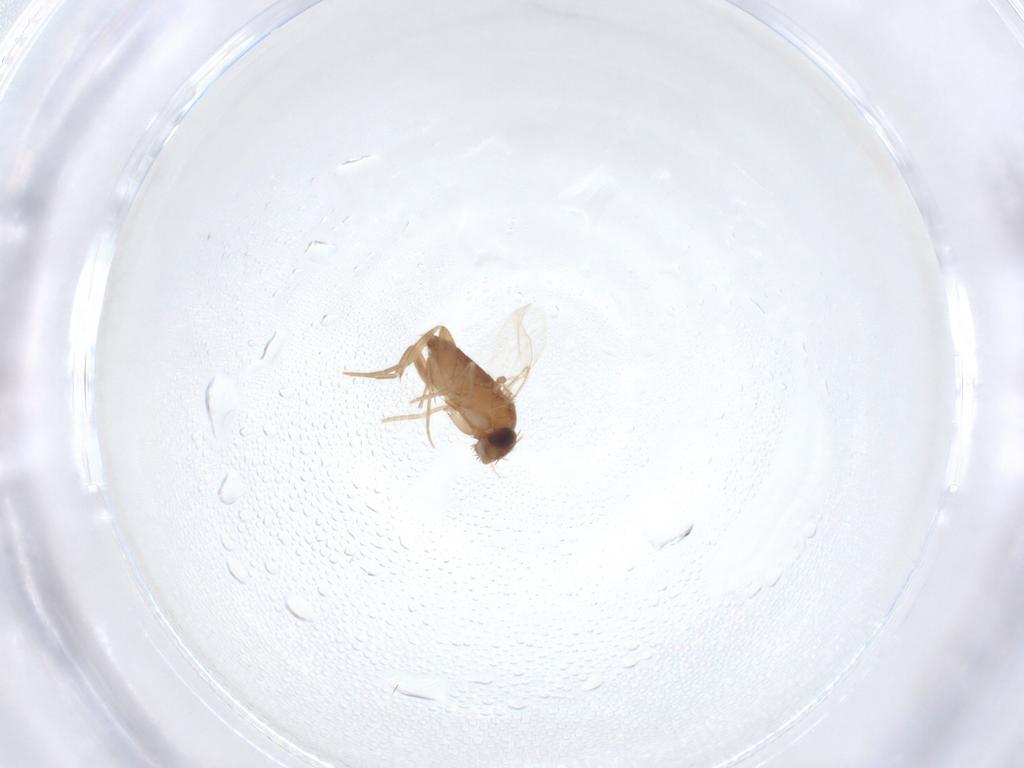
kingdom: Animalia
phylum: Arthropoda
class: Insecta
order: Diptera
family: Phoridae
